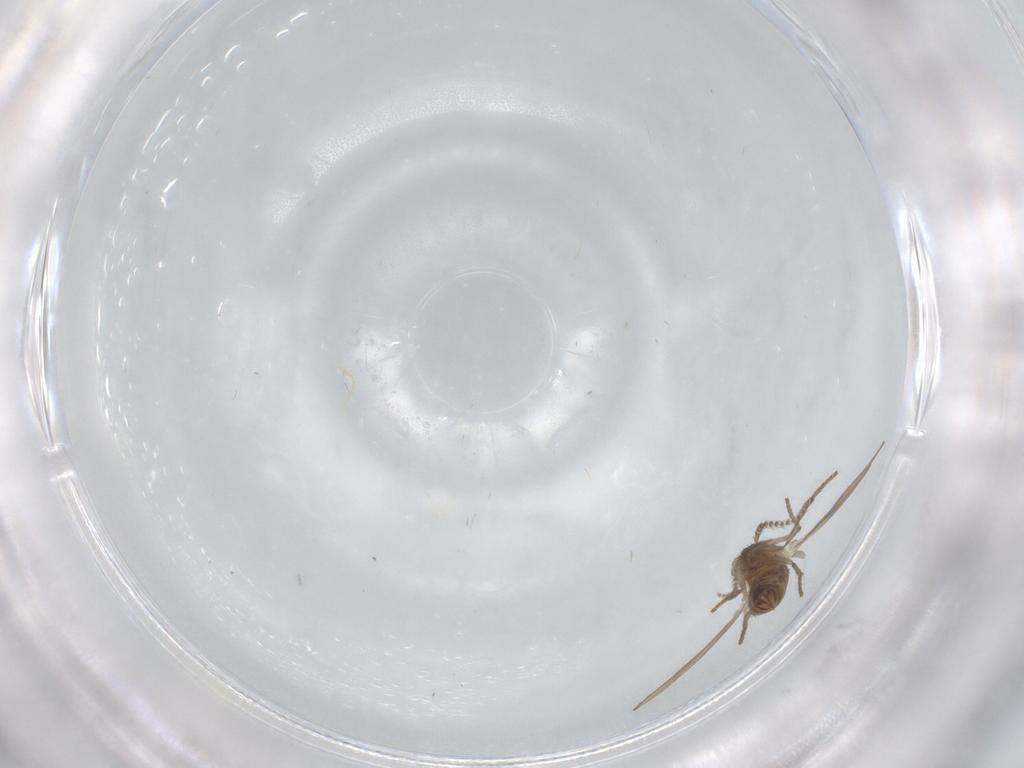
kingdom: Animalia
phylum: Arthropoda
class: Insecta
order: Diptera
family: Psychodidae
